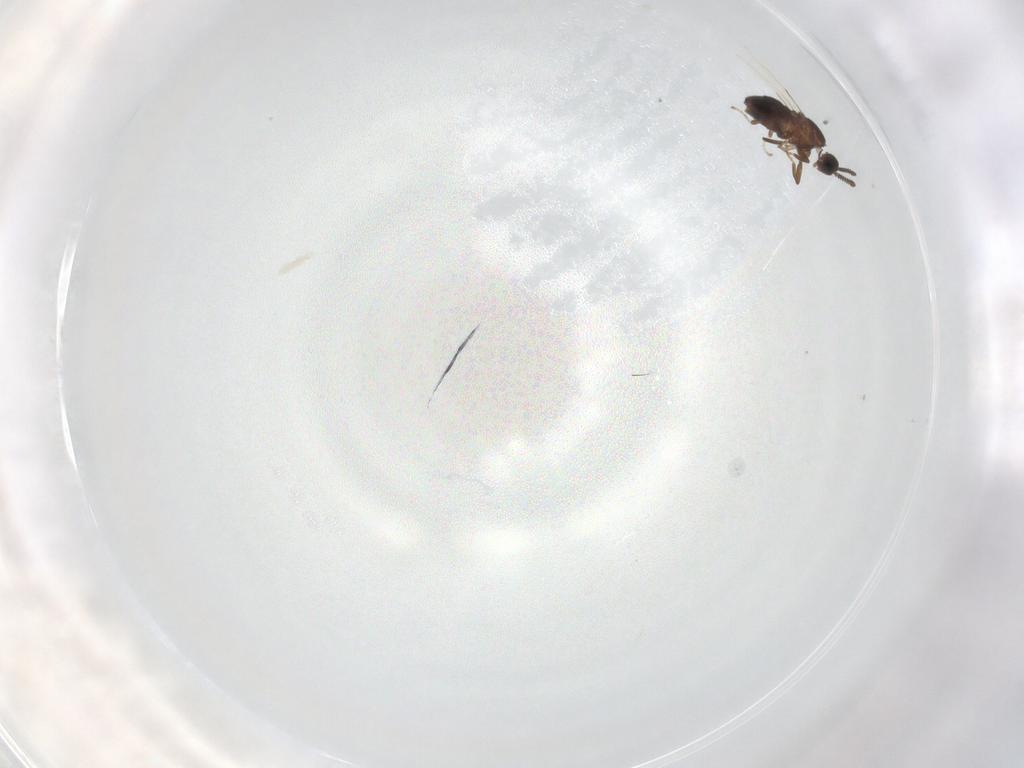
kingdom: Animalia
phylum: Arthropoda
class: Insecta
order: Diptera
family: Scatopsidae
